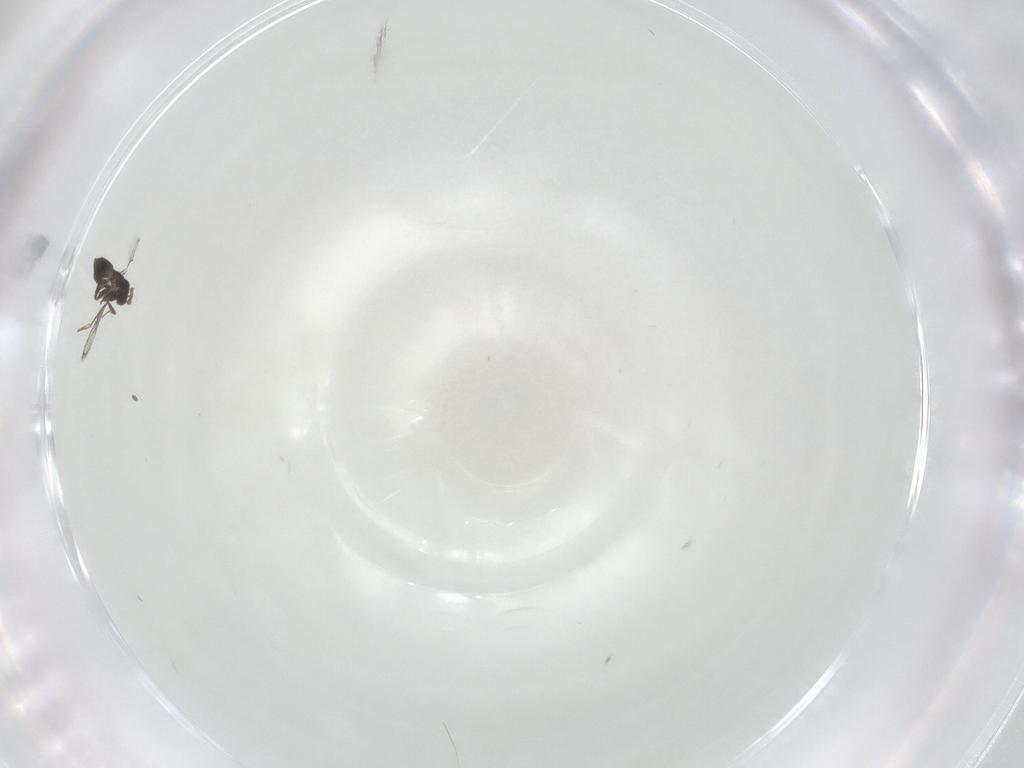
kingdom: Animalia
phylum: Arthropoda
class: Insecta
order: Hymenoptera
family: Trichogrammatidae
